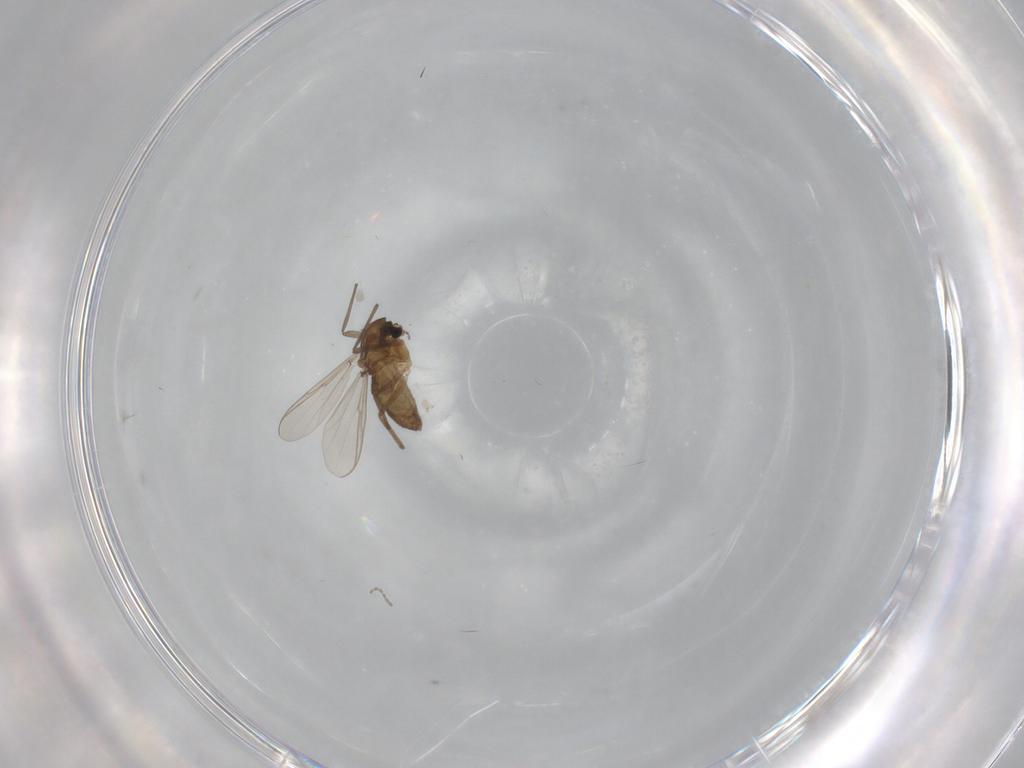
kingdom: Animalia
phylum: Arthropoda
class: Insecta
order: Diptera
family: Chironomidae
